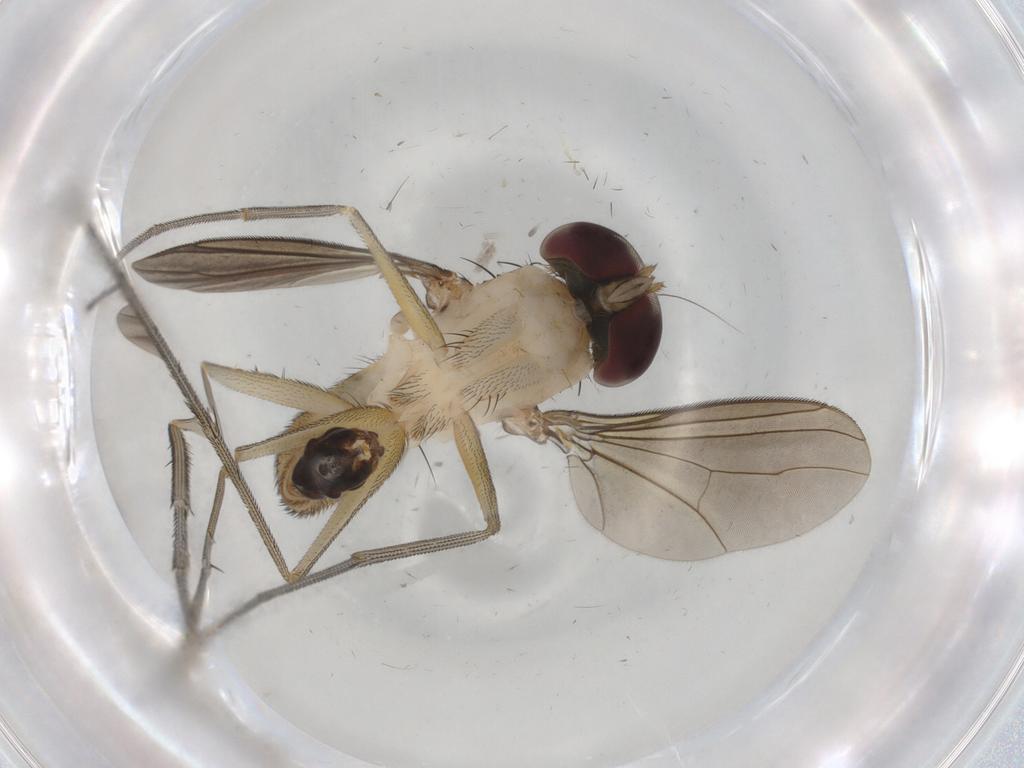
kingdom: Animalia
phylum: Arthropoda
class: Insecta
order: Diptera
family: Dolichopodidae
